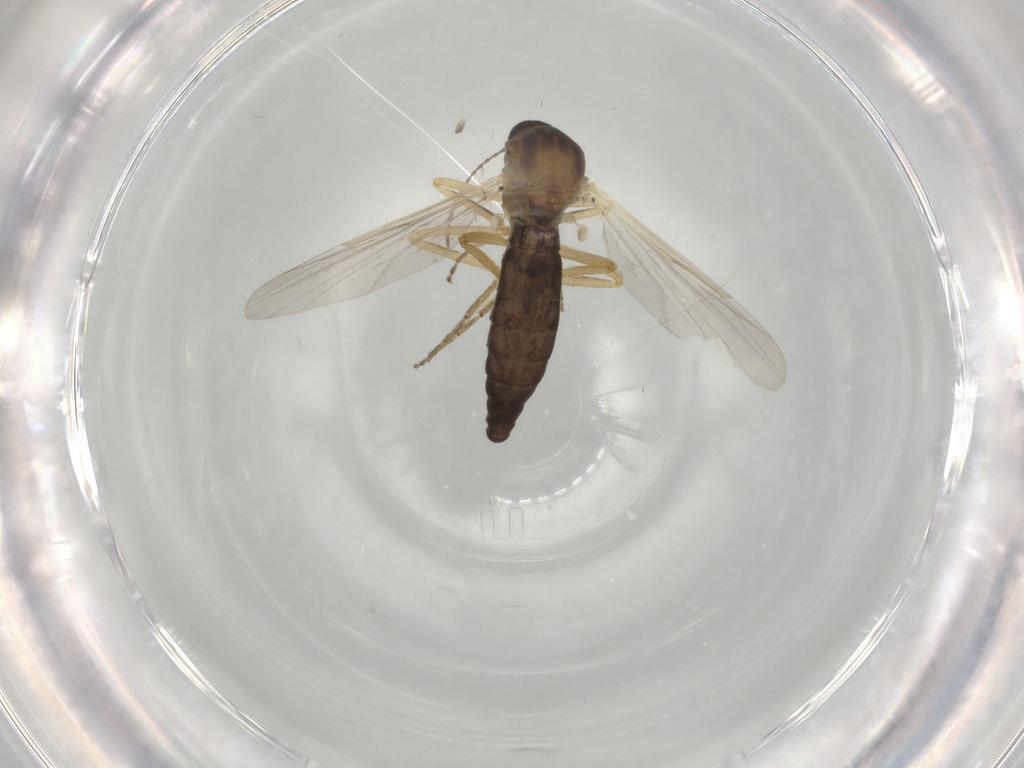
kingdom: Animalia
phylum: Arthropoda
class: Insecta
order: Diptera
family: Ceratopogonidae
